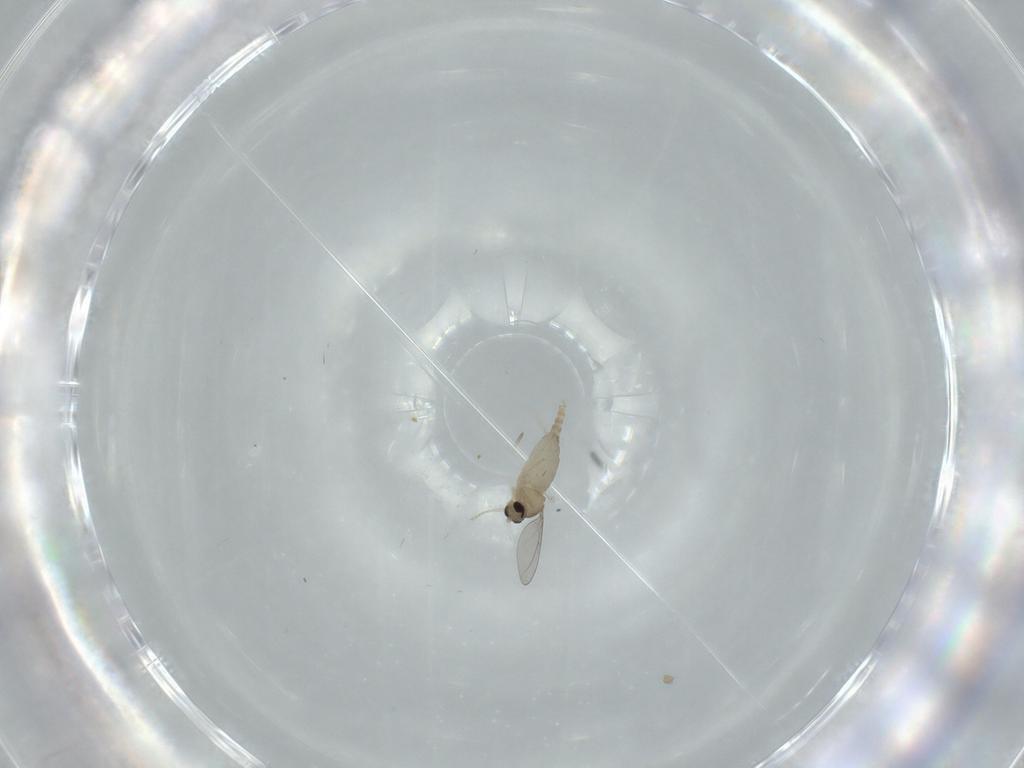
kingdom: Animalia
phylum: Arthropoda
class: Insecta
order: Diptera
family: Cecidomyiidae
